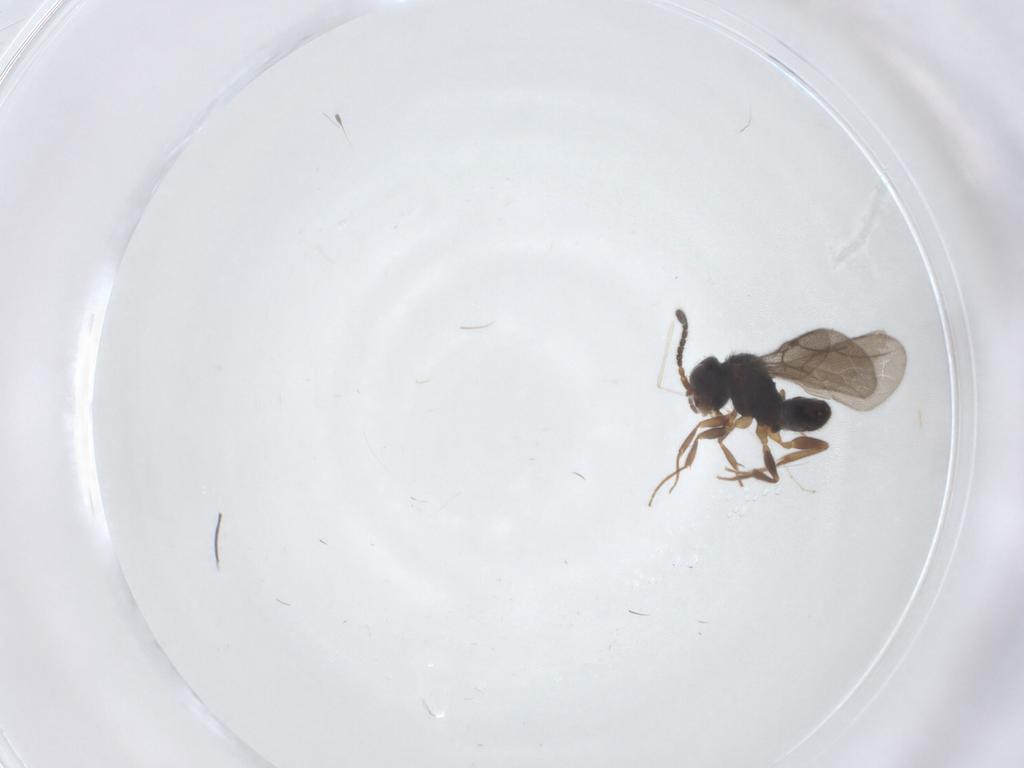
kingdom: Animalia
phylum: Arthropoda
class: Insecta
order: Hymenoptera
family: Bethylidae
